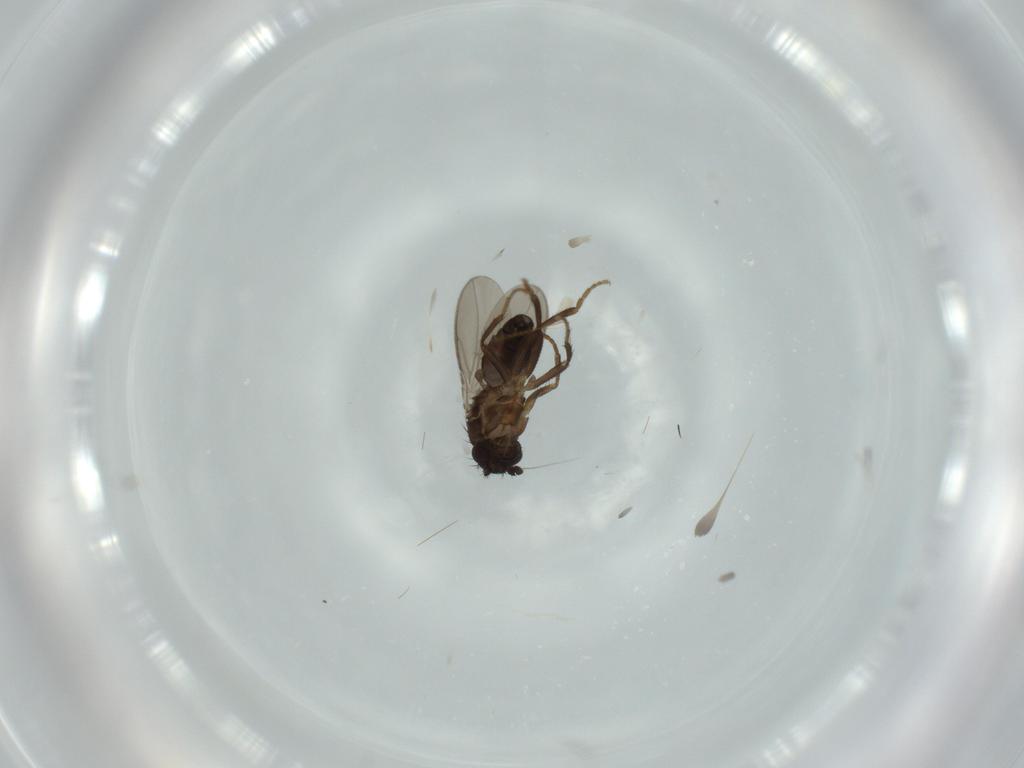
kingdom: Animalia
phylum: Arthropoda
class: Insecta
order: Diptera
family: Sphaeroceridae
